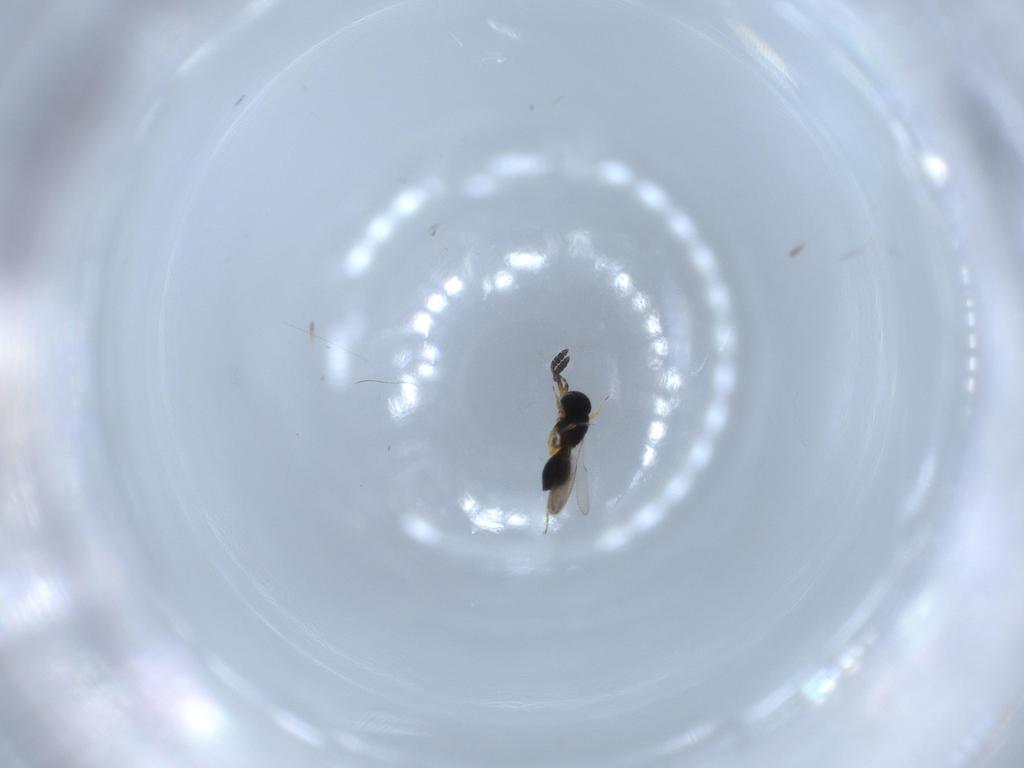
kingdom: Animalia
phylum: Arthropoda
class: Insecta
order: Hymenoptera
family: Scelionidae
